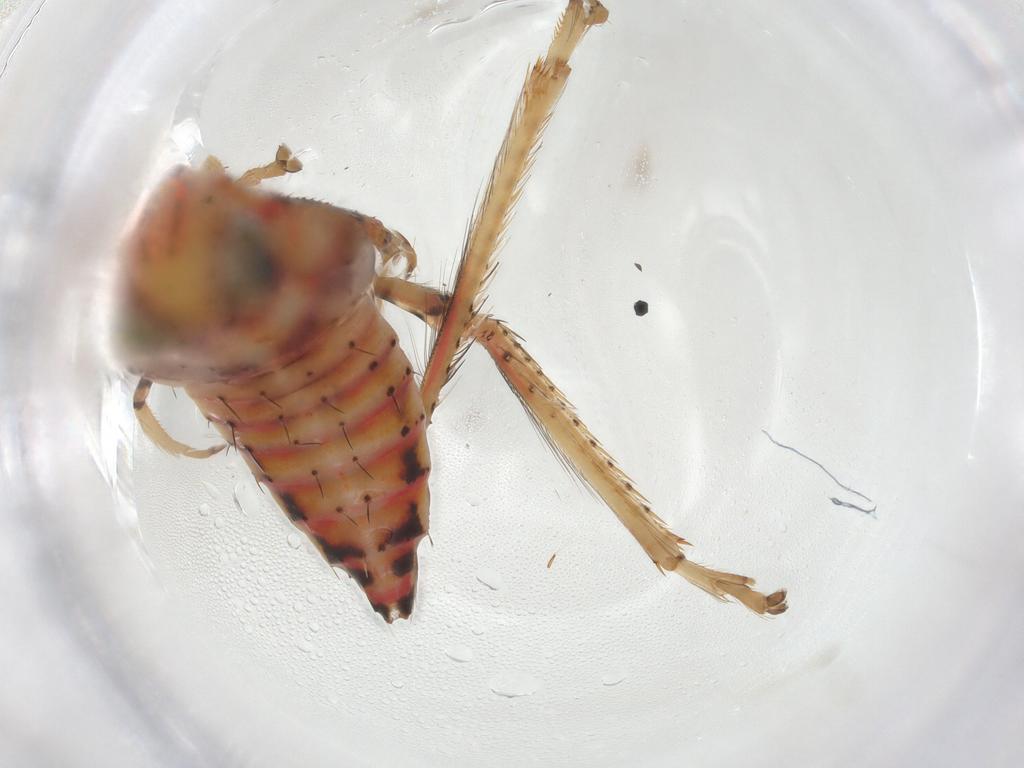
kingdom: Animalia
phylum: Arthropoda
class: Insecta
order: Hemiptera
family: Cicadellidae
